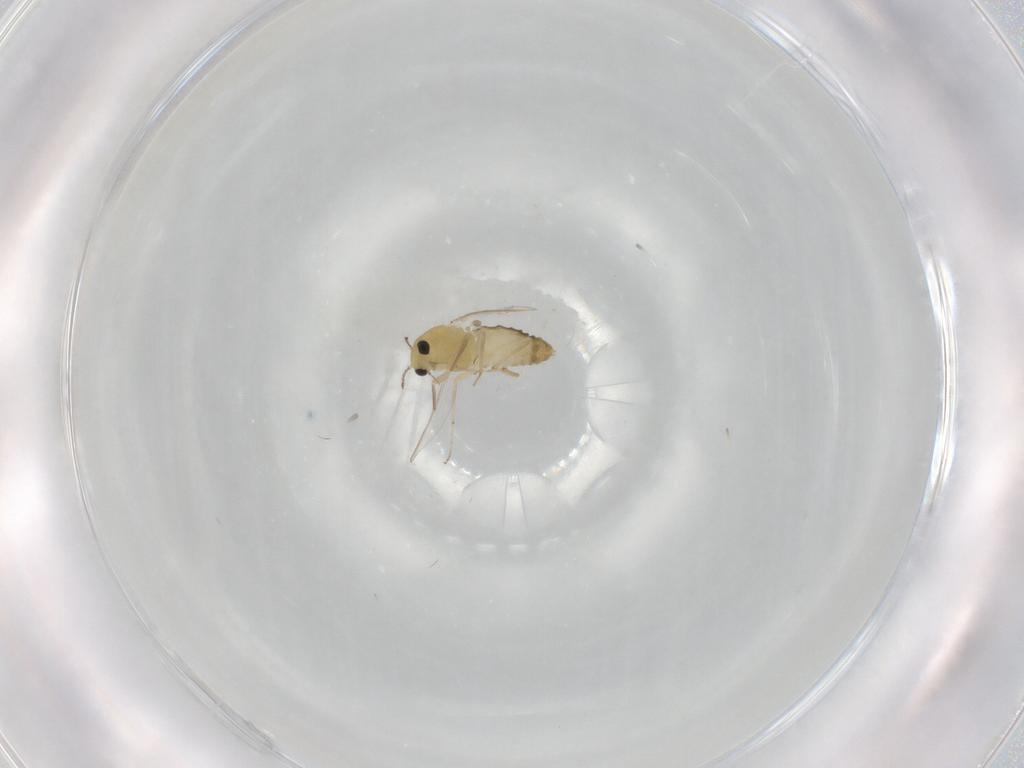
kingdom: Animalia
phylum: Arthropoda
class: Insecta
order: Diptera
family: Chironomidae
